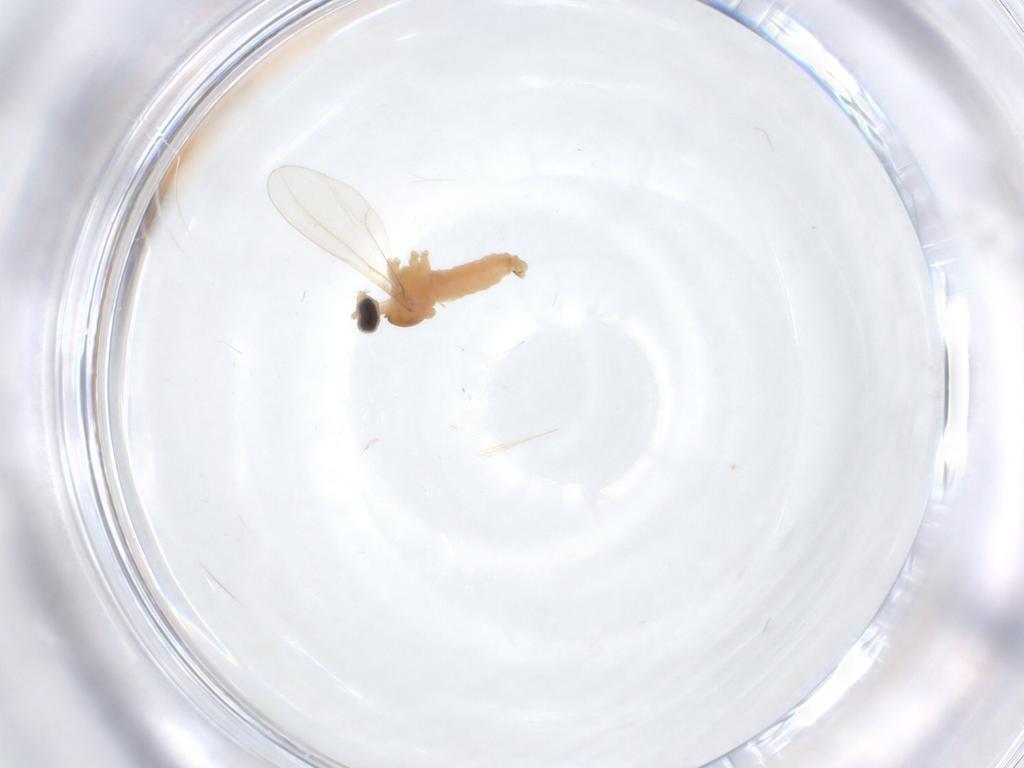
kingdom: Animalia
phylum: Arthropoda
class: Insecta
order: Diptera
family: Cecidomyiidae
